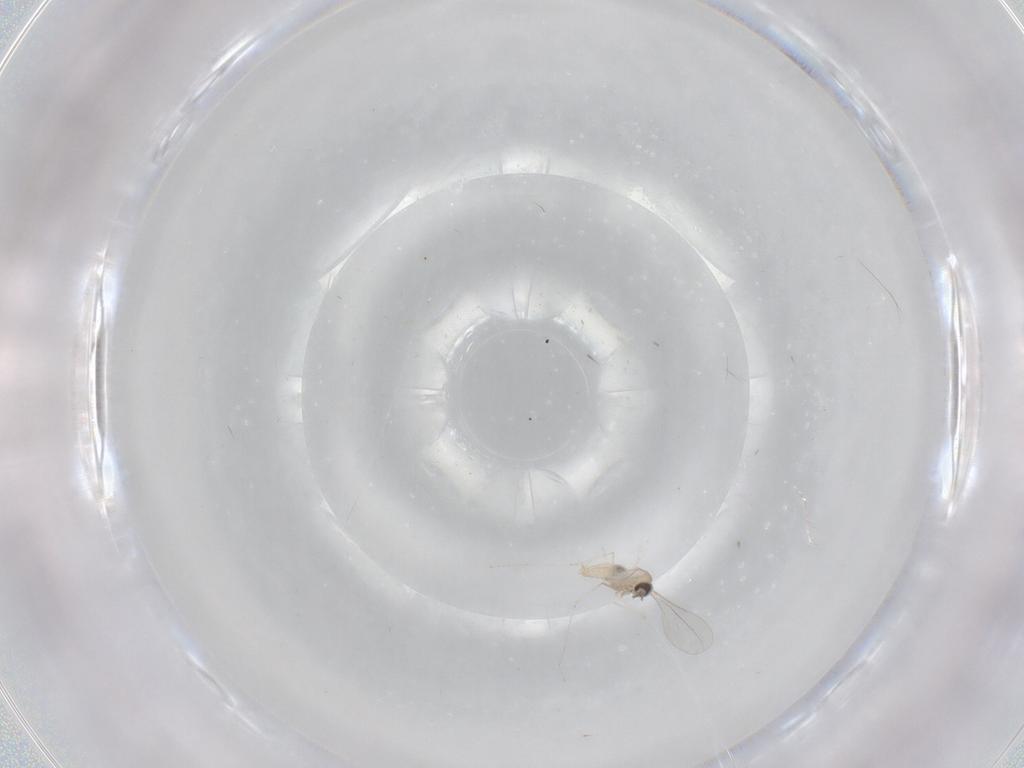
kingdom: Animalia
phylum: Arthropoda
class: Insecta
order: Diptera
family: Cecidomyiidae
